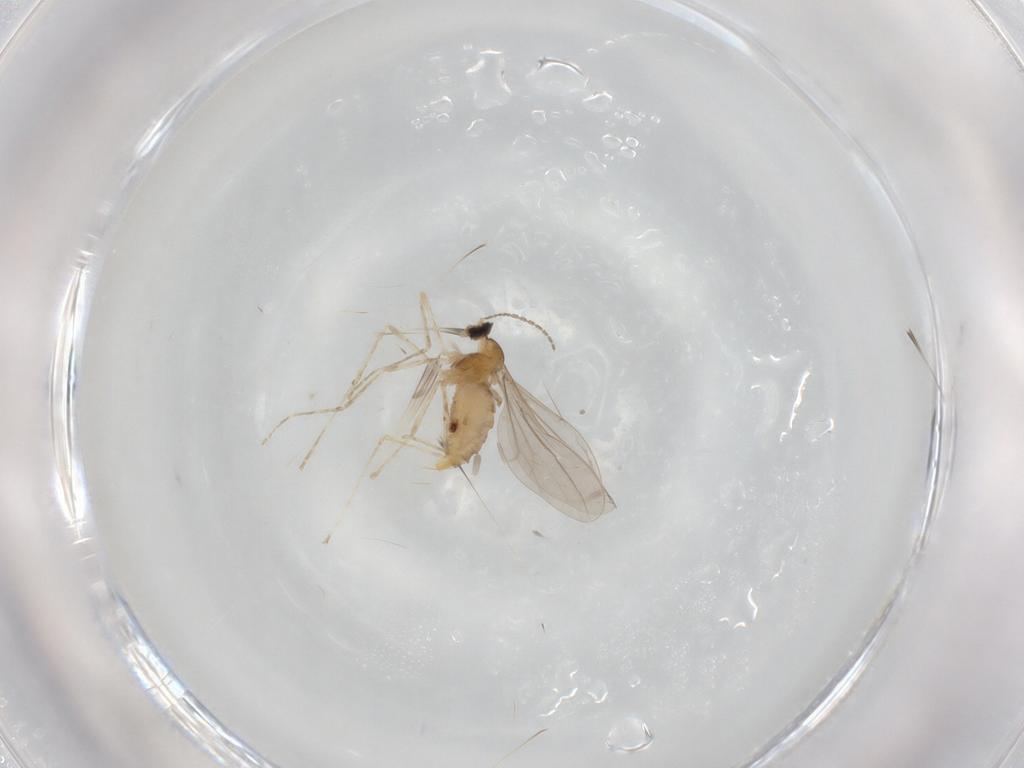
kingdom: Animalia
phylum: Arthropoda
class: Insecta
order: Diptera
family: Cecidomyiidae
